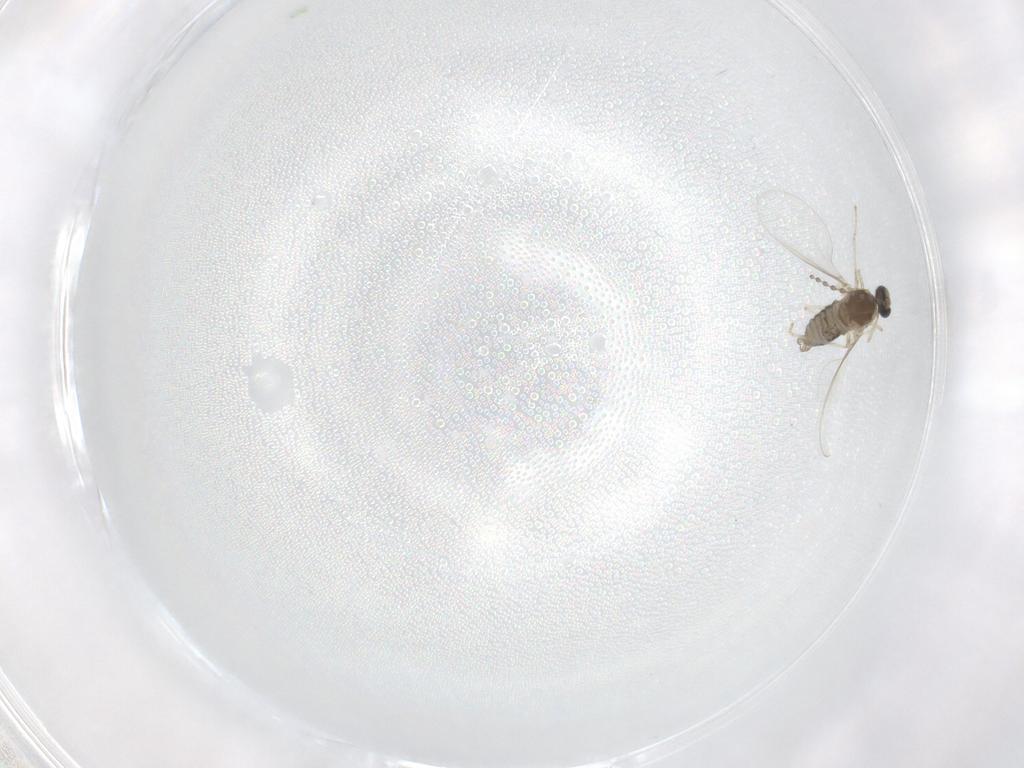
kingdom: Animalia
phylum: Arthropoda
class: Insecta
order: Diptera
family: Cecidomyiidae
